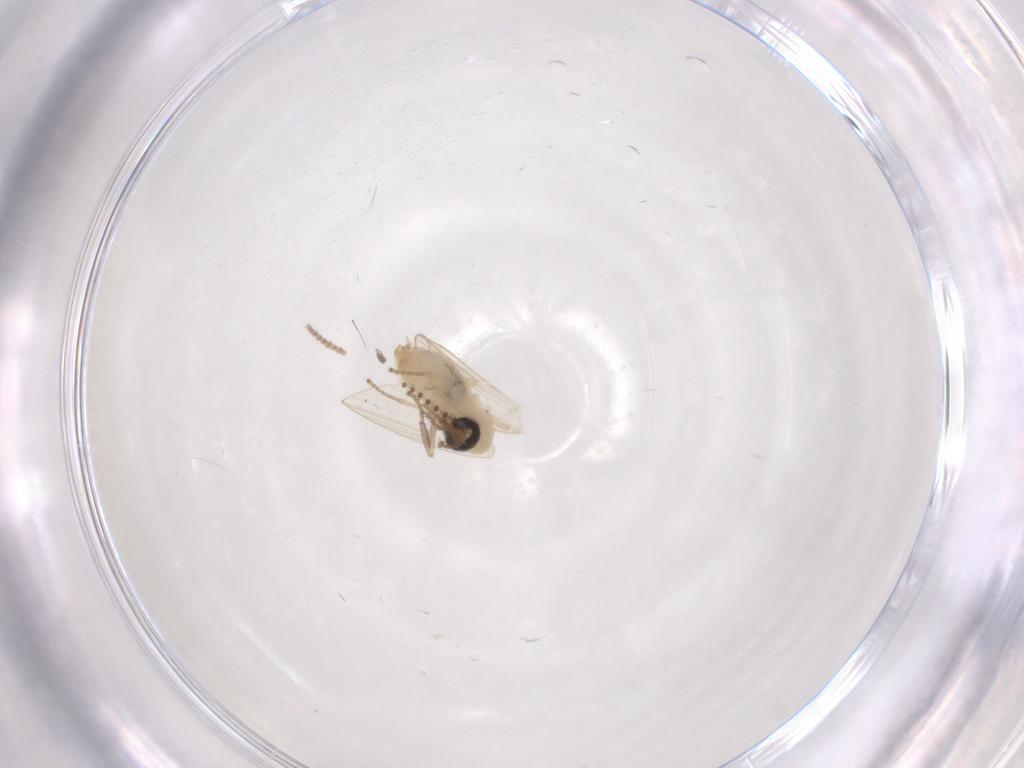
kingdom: Animalia
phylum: Arthropoda
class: Insecta
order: Diptera
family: Psychodidae
